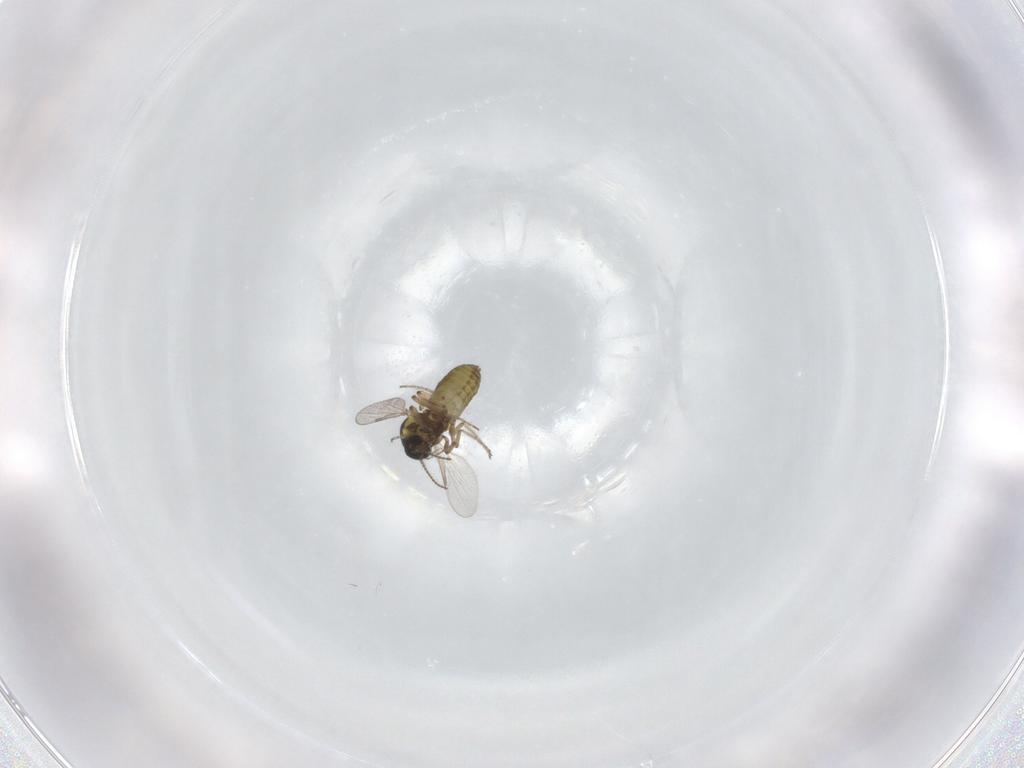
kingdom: Animalia
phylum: Arthropoda
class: Insecta
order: Diptera
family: Ceratopogonidae
